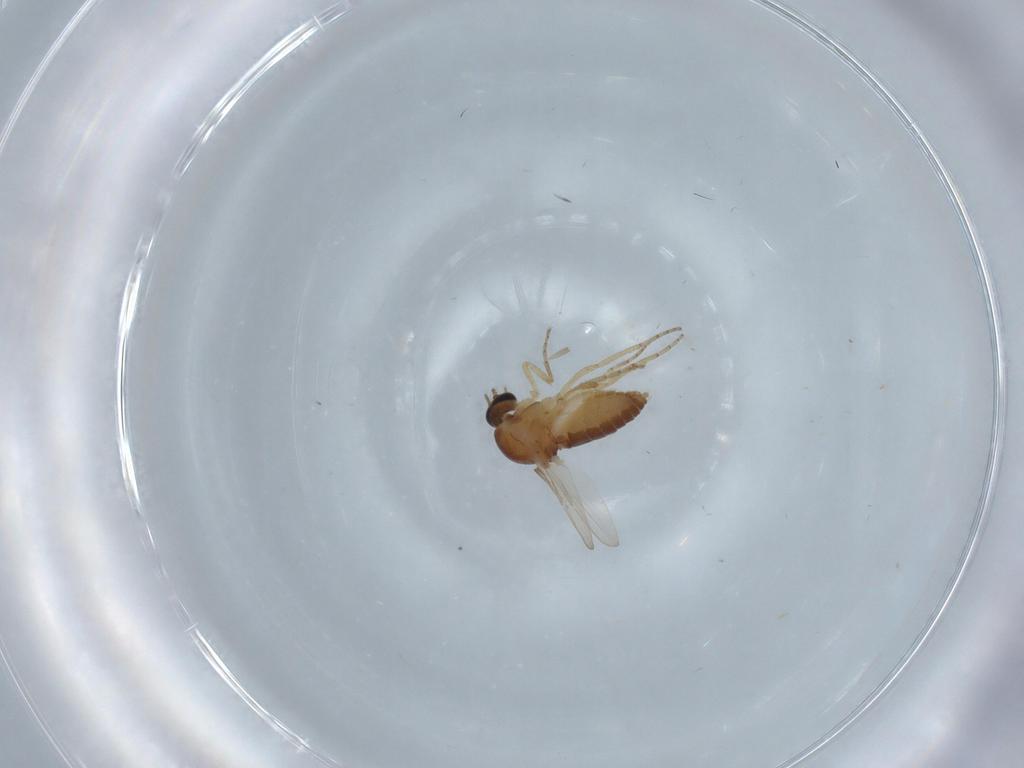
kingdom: Animalia
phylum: Arthropoda
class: Insecta
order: Diptera
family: Ceratopogonidae
